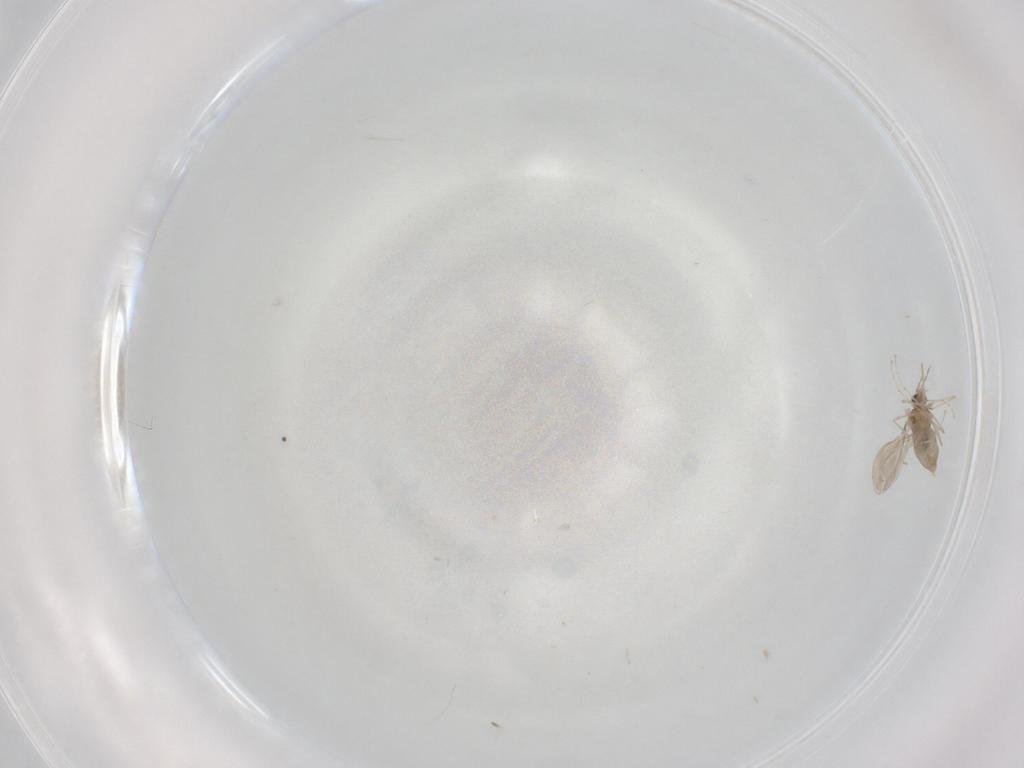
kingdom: Animalia
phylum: Arthropoda
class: Insecta
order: Diptera
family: Cecidomyiidae
